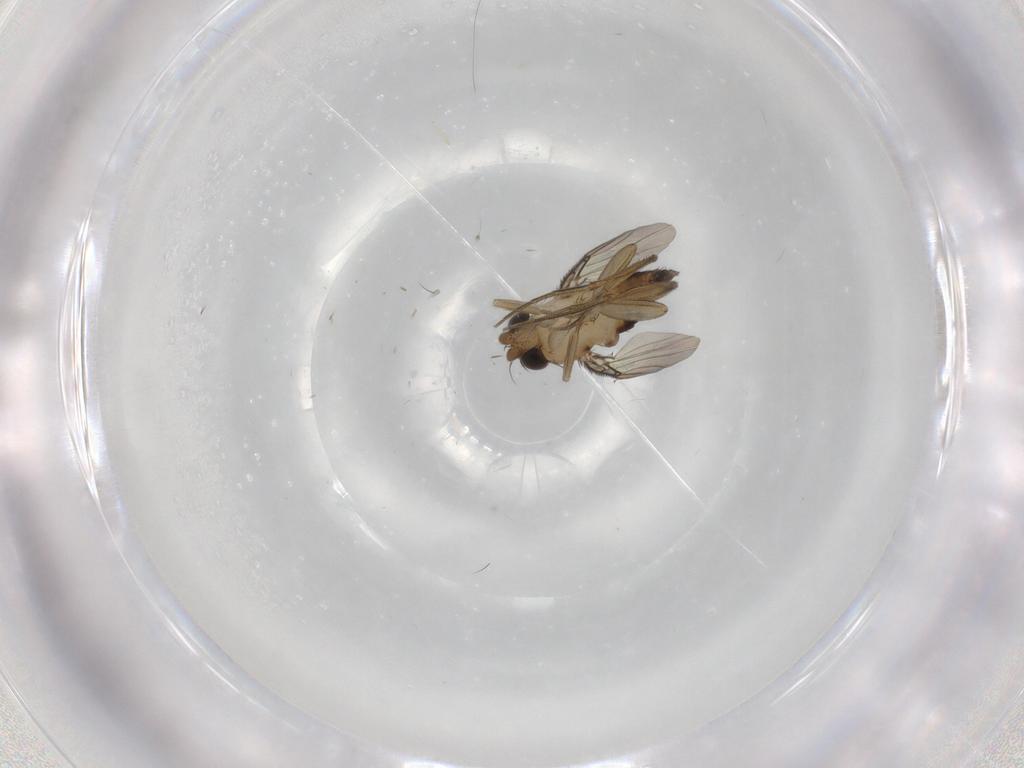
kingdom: Animalia
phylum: Arthropoda
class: Insecta
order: Diptera
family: Phoridae
